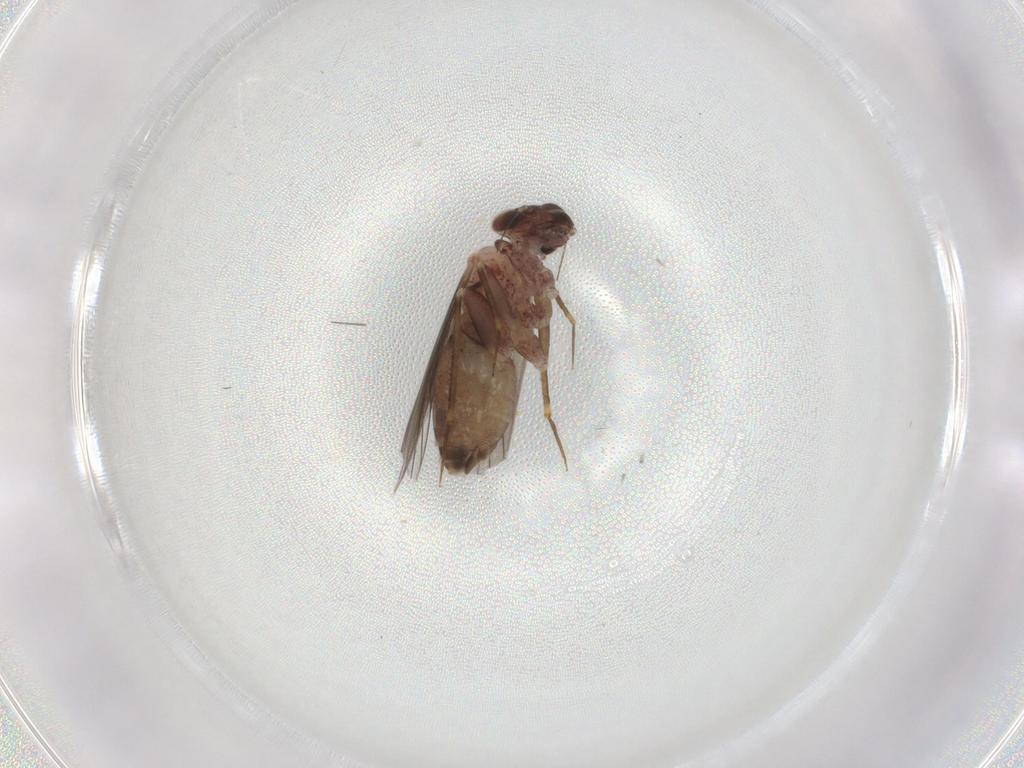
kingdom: Animalia
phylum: Arthropoda
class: Insecta
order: Psocodea
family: Lepidopsocidae
